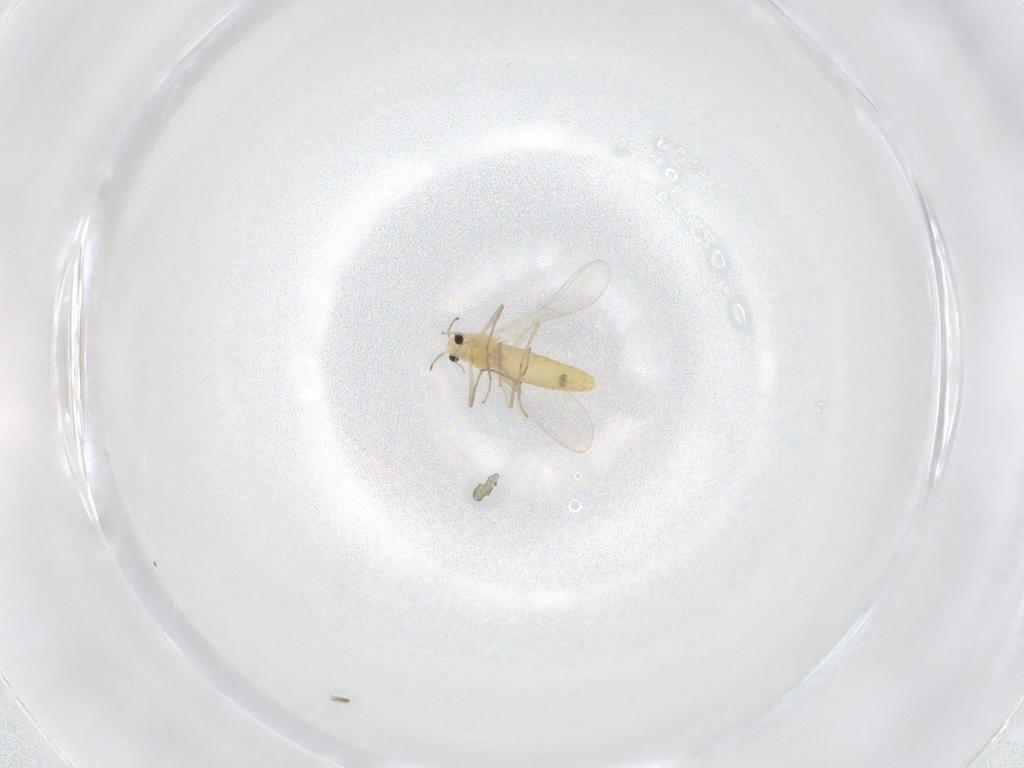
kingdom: Animalia
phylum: Arthropoda
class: Insecta
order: Diptera
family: Chironomidae
